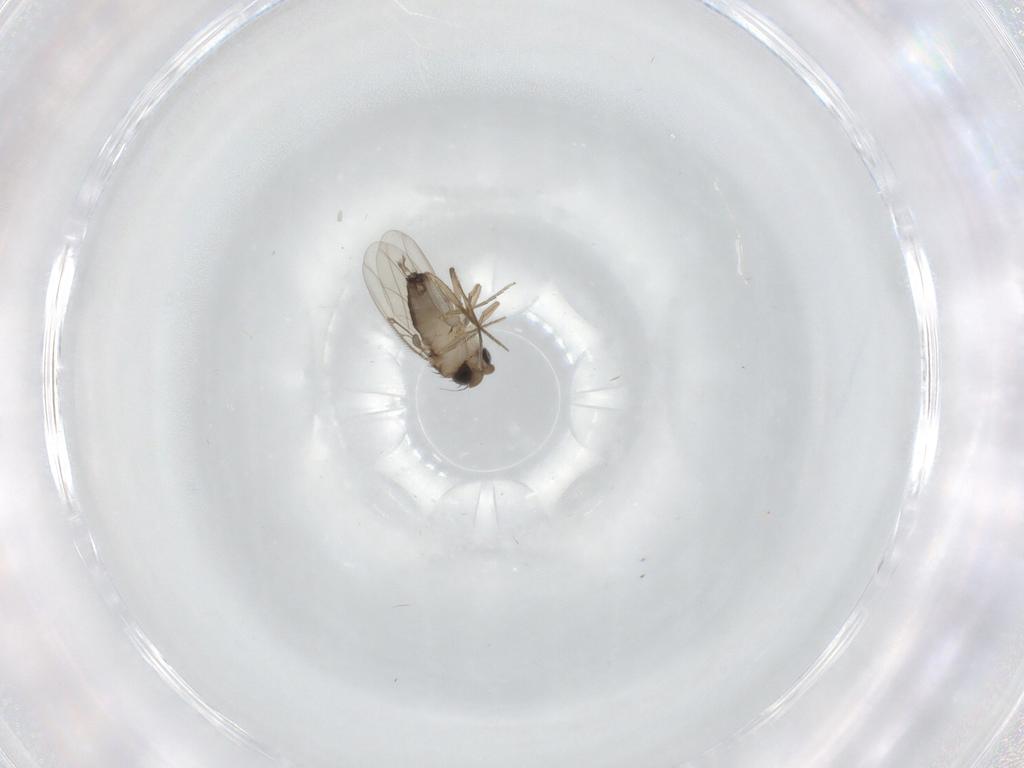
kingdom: Animalia
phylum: Arthropoda
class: Insecta
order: Diptera
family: Phoridae
